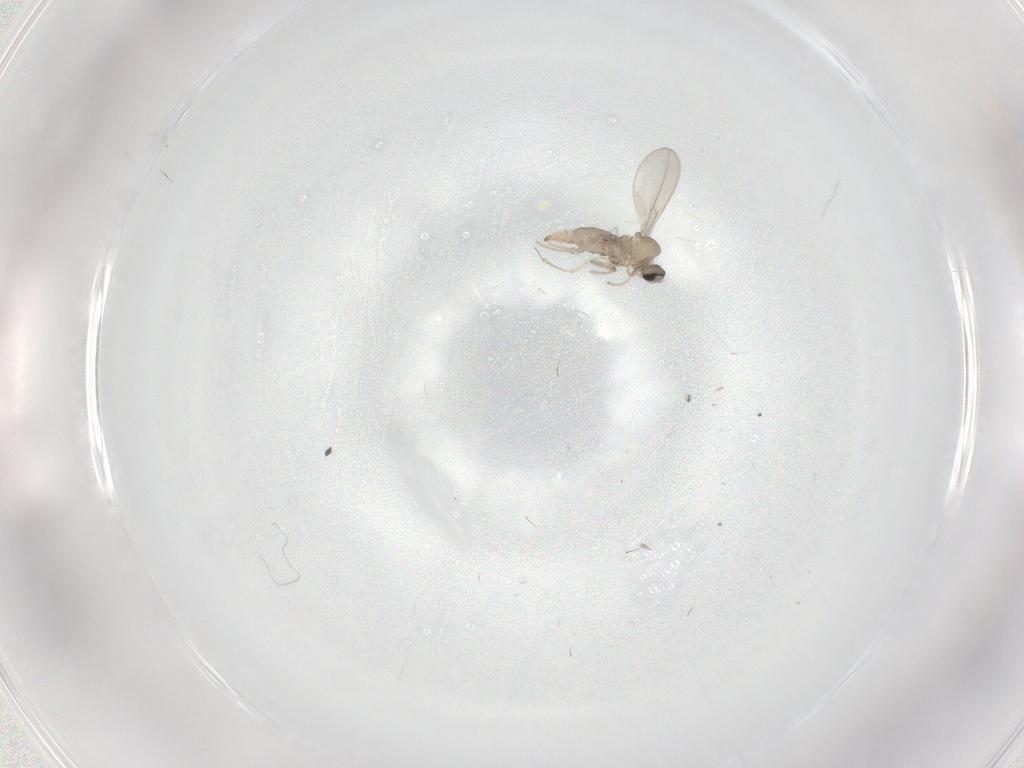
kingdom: Animalia
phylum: Arthropoda
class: Insecta
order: Diptera
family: Cecidomyiidae
